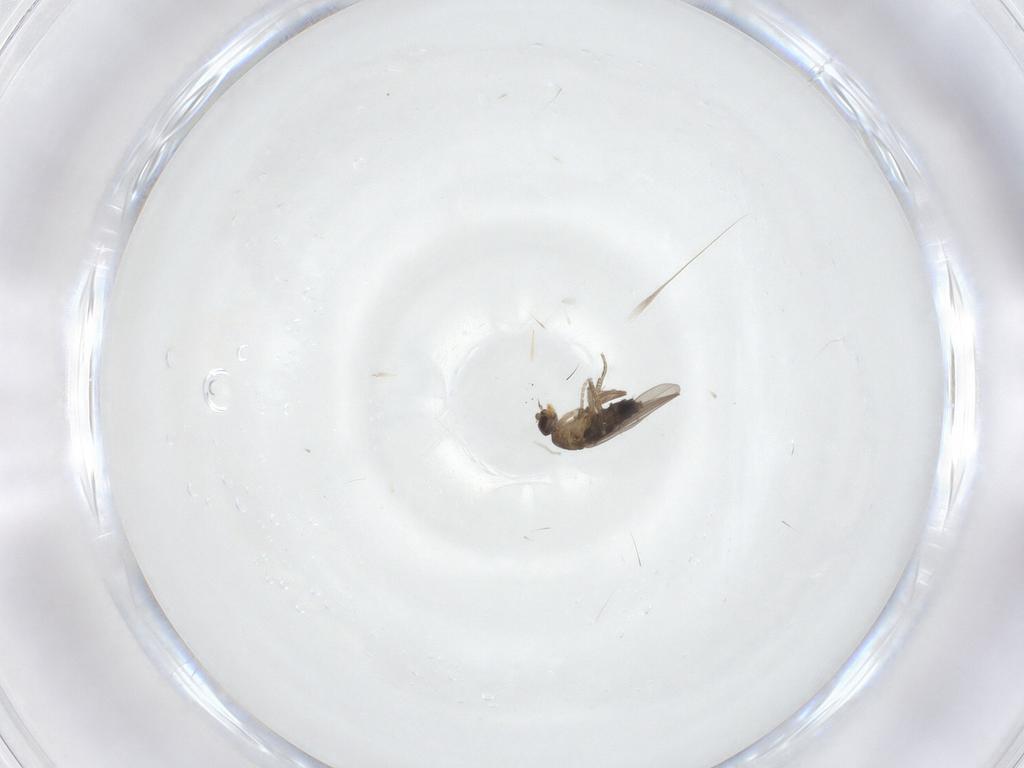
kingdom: Animalia
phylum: Arthropoda
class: Insecta
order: Diptera
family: Phoridae
